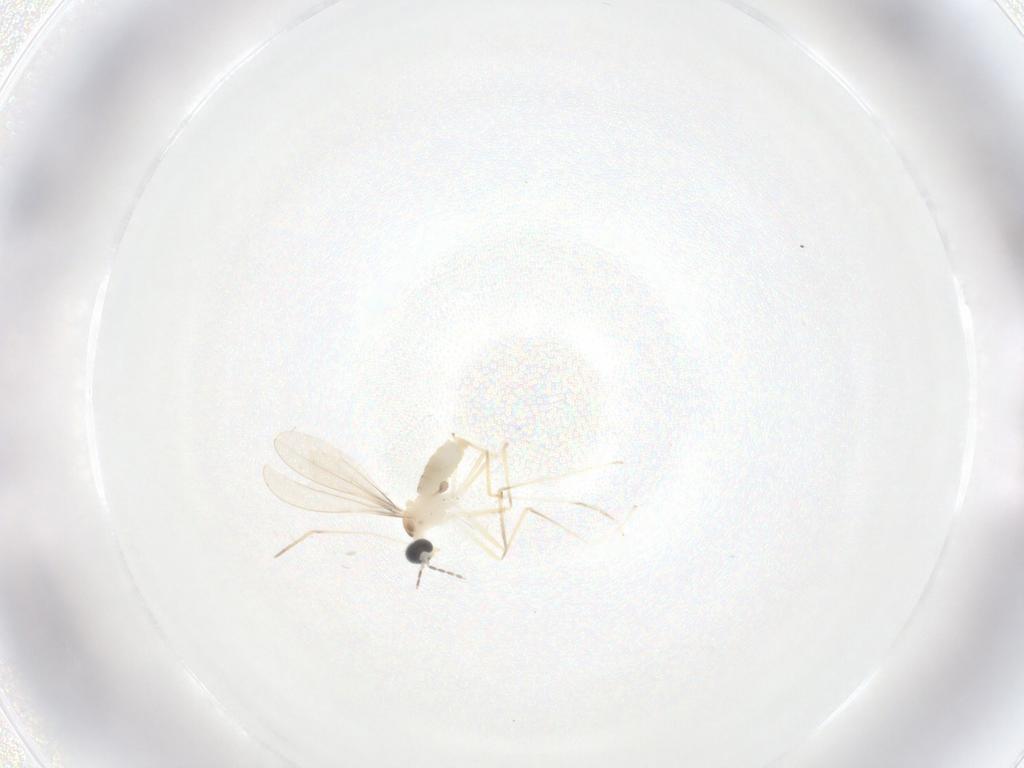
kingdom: Animalia
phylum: Arthropoda
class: Insecta
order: Diptera
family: Cecidomyiidae
